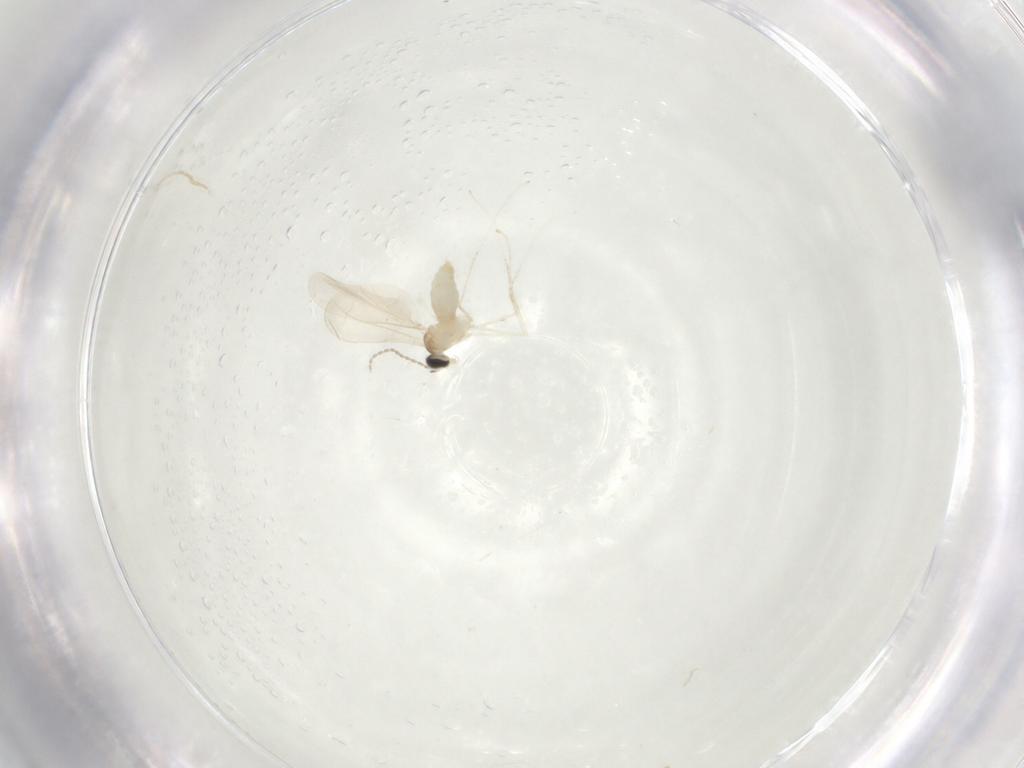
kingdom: Animalia
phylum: Arthropoda
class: Insecta
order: Diptera
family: Cecidomyiidae
